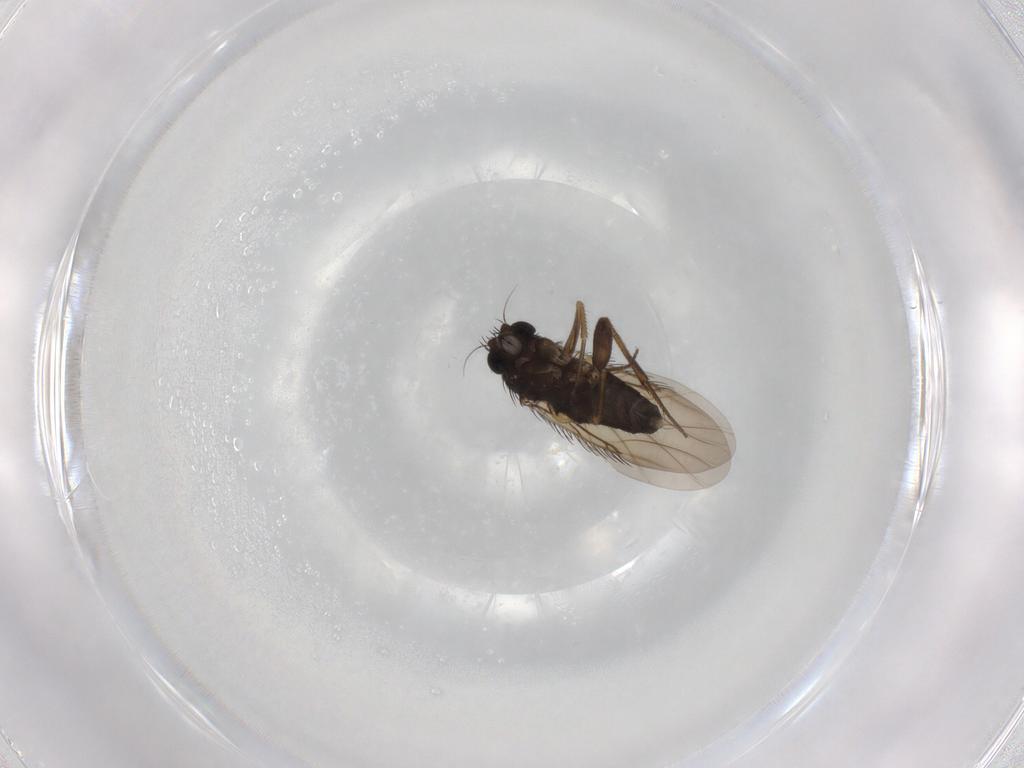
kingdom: Animalia
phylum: Arthropoda
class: Insecta
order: Diptera
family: Phoridae
